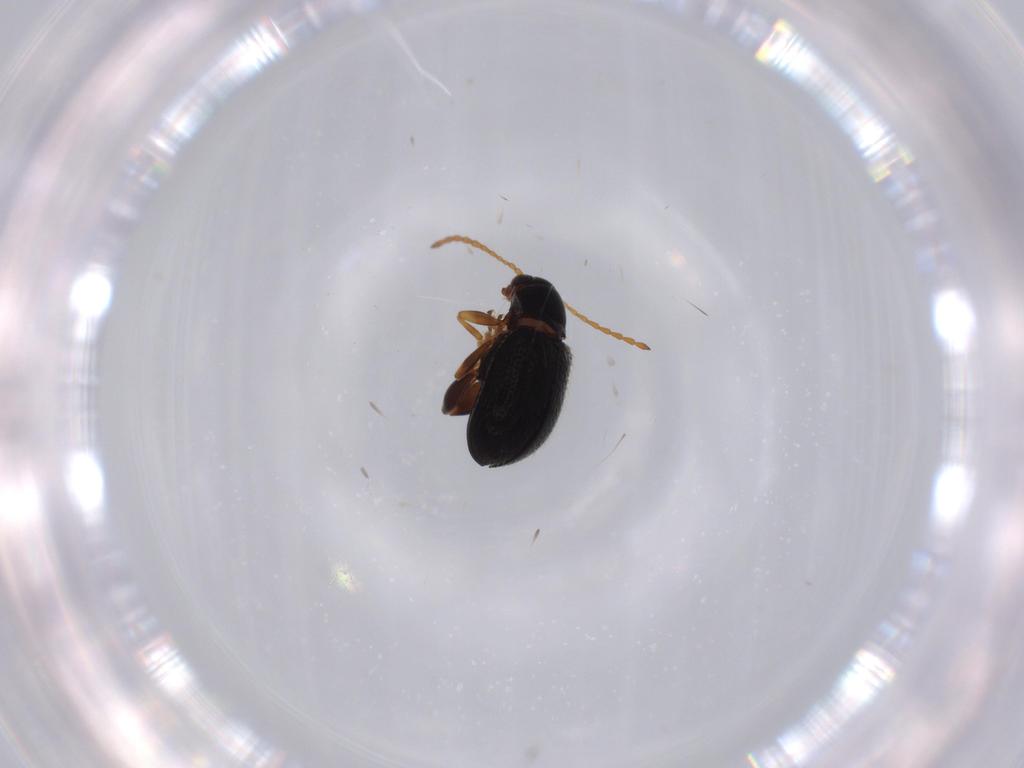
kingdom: Animalia
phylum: Arthropoda
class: Insecta
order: Coleoptera
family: Chrysomelidae
